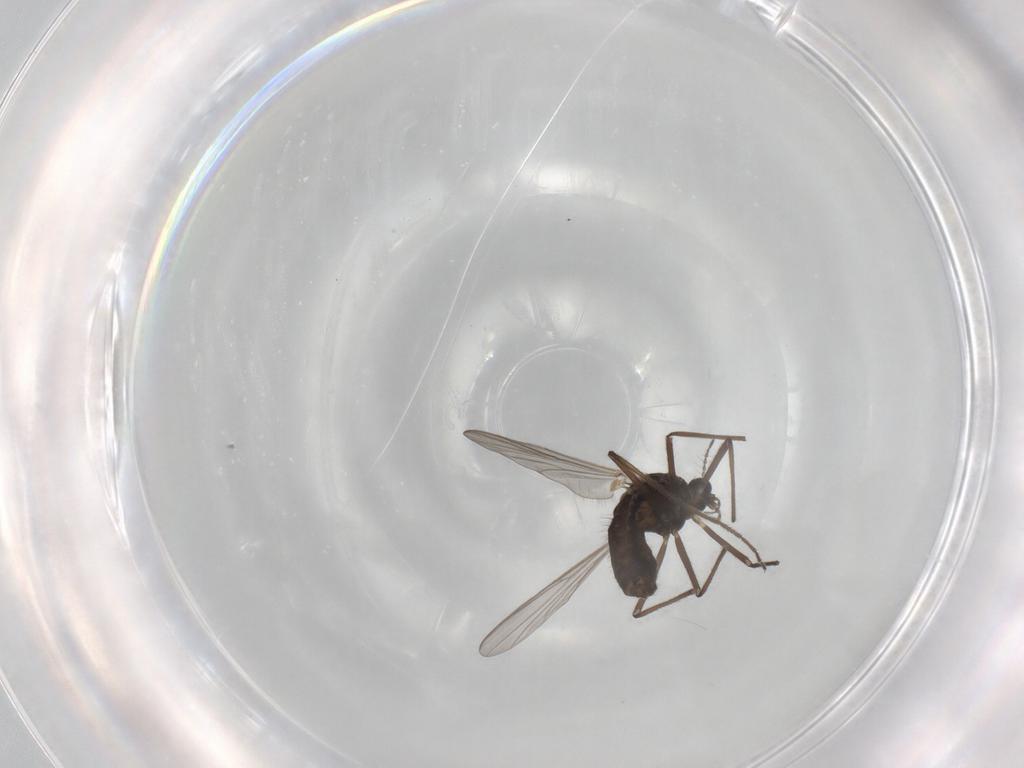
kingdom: Animalia
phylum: Arthropoda
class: Insecta
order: Diptera
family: Chironomidae
